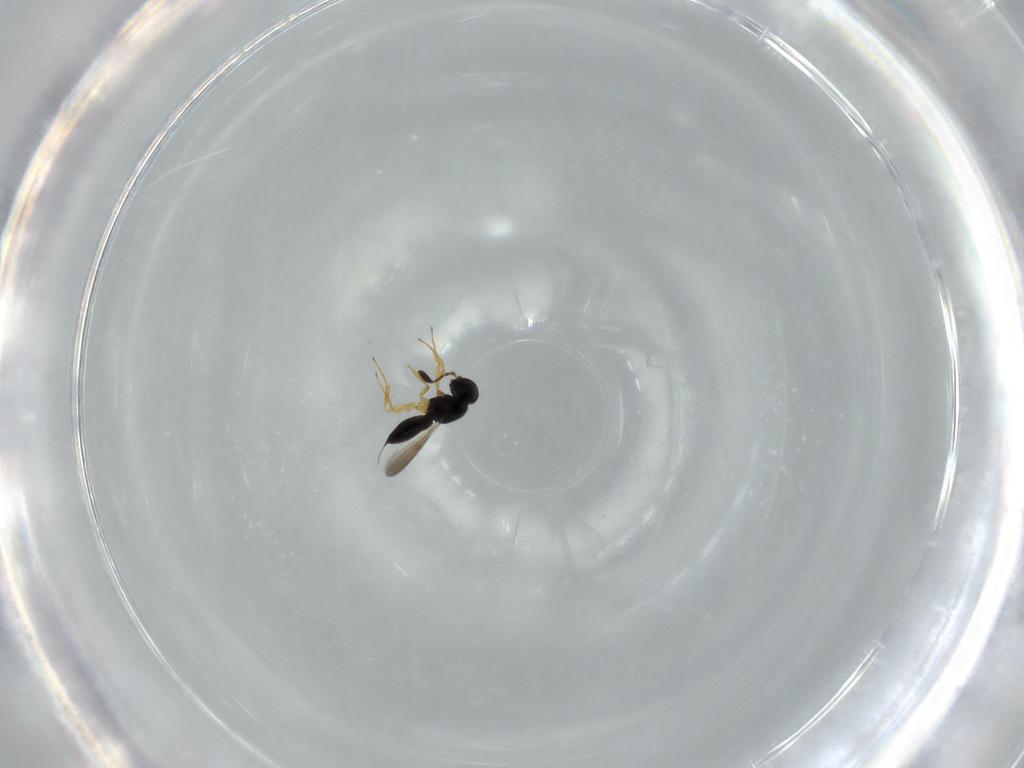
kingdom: Animalia
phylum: Arthropoda
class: Insecta
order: Hymenoptera
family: Scelionidae
